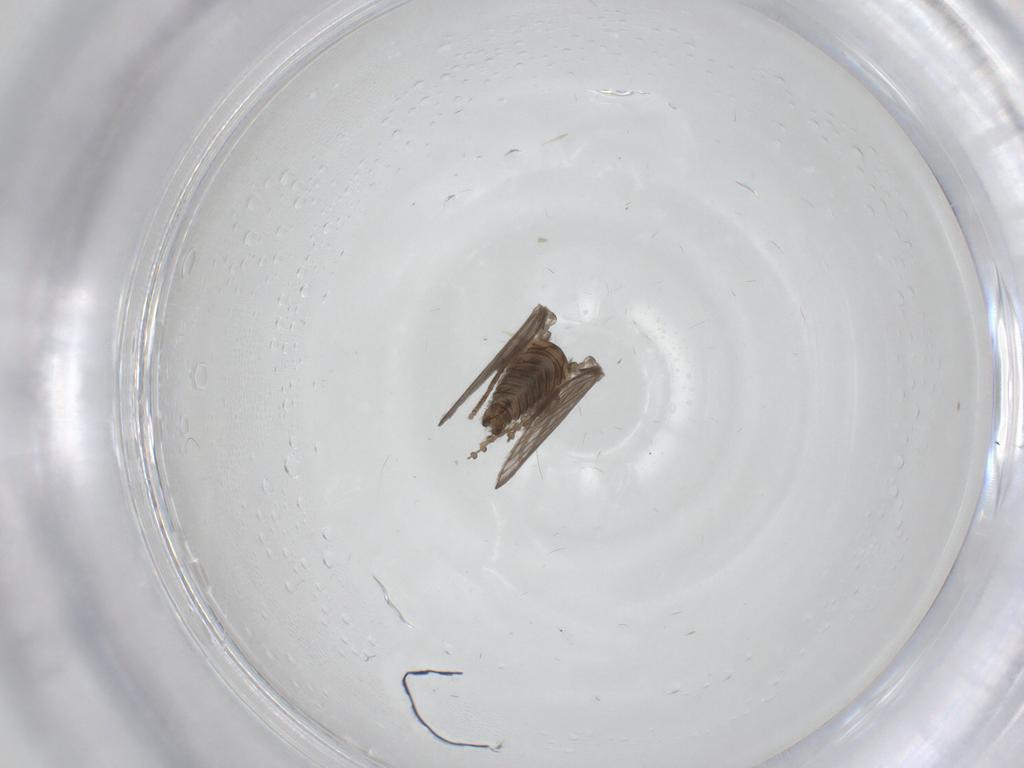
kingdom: Animalia
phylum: Arthropoda
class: Insecta
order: Diptera
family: Psychodidae
